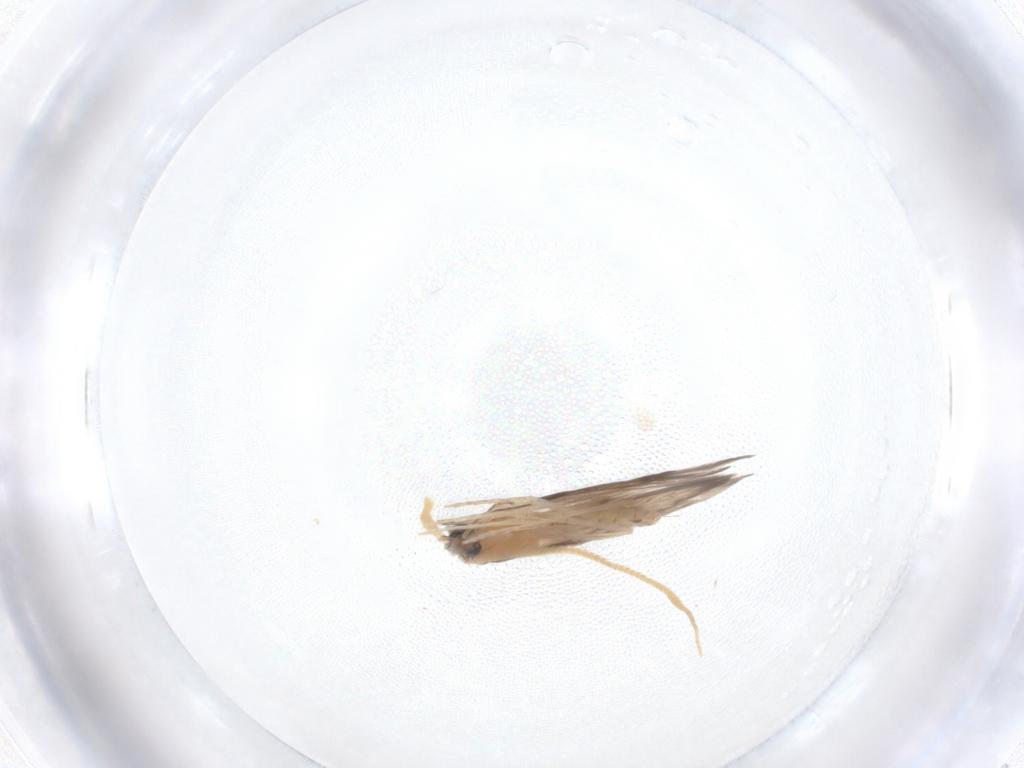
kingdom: Animalia
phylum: Arthropoda
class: Insecta
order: Trichoptera
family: Hydroptilidae
